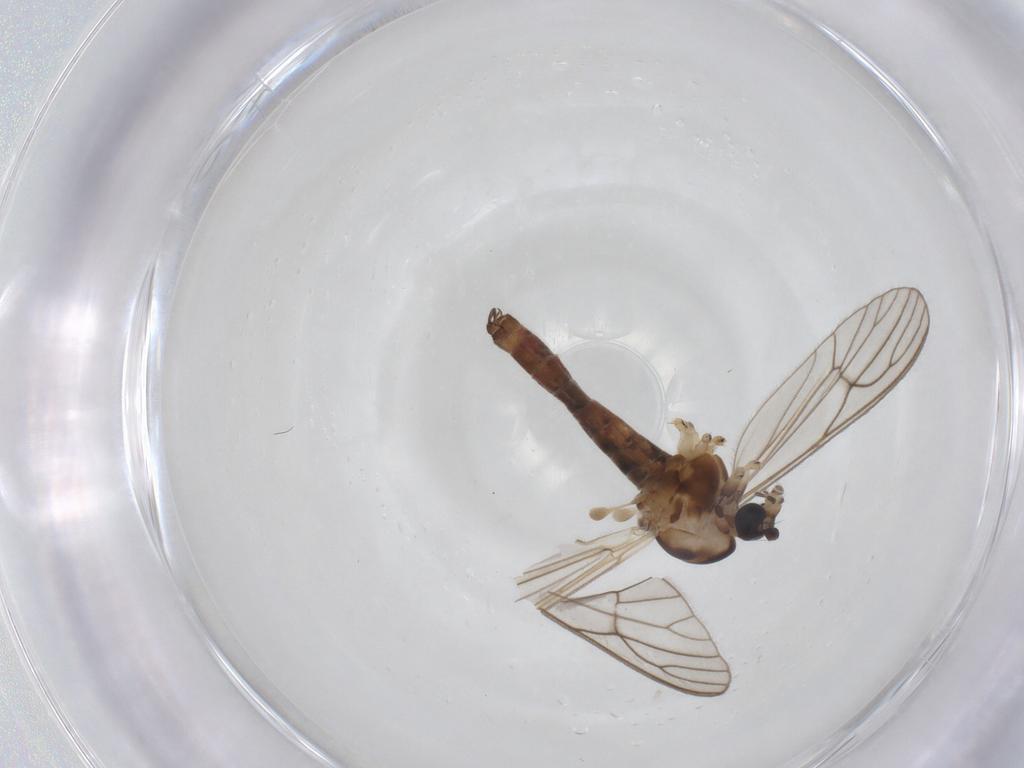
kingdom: Animalia
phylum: Arthropoda
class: Insecta
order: Diptera
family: Dixidae
